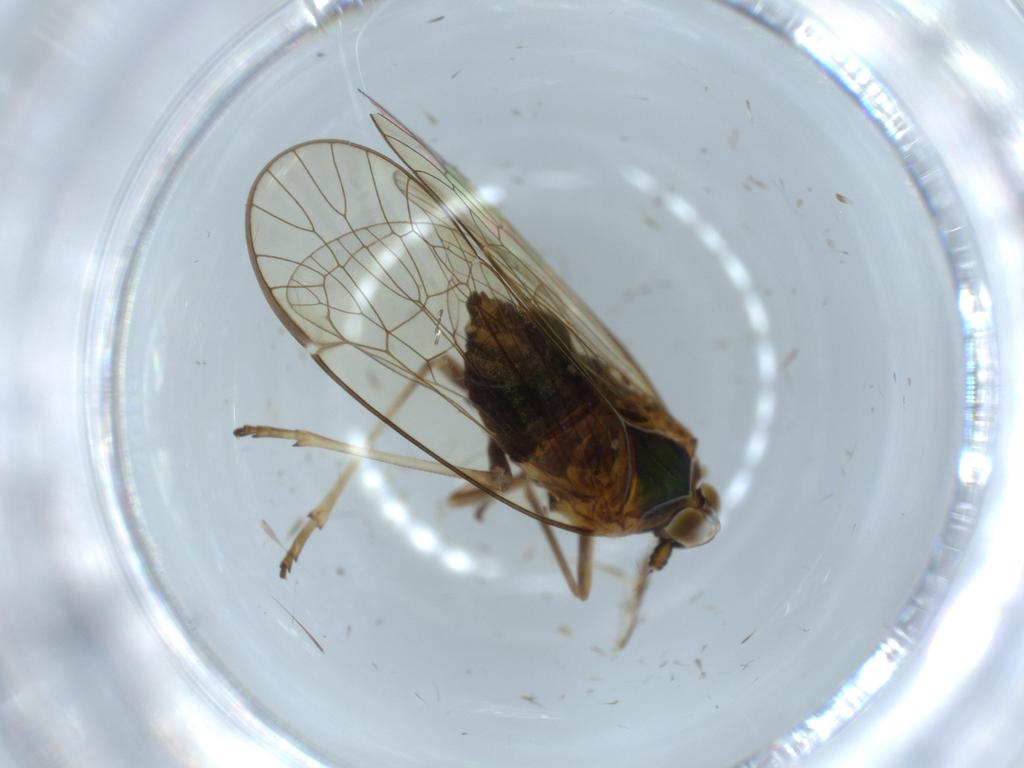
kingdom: Animalia
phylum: Arthropoda
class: Insecta
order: Hemiptera
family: Kinnaridae
